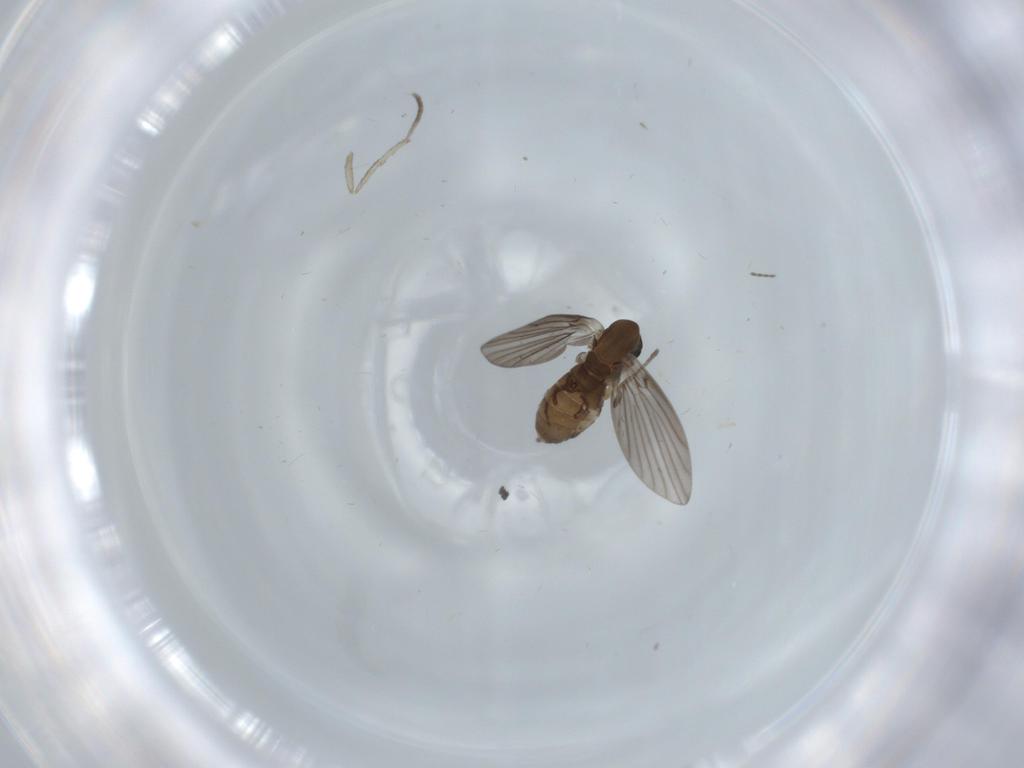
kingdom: Animalia
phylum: Arthropoda
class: Insecta
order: Diptera
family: Psychodidae
